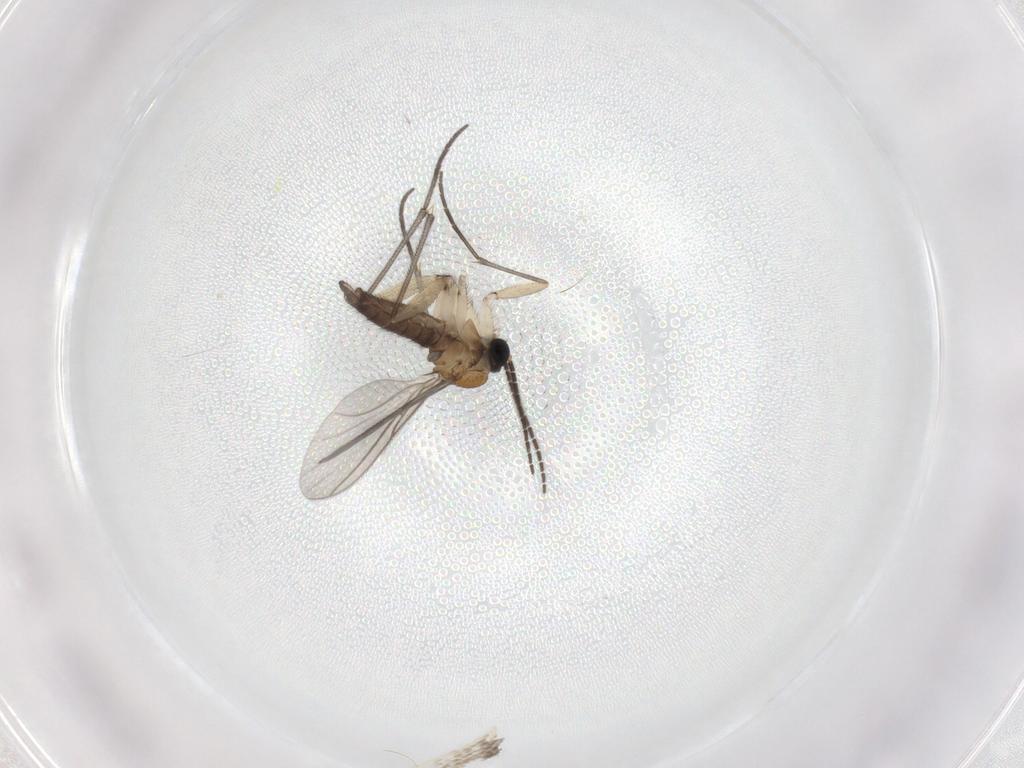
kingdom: Animalia
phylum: Arthropoda
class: Insecta
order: Diptera
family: Sciaridae
